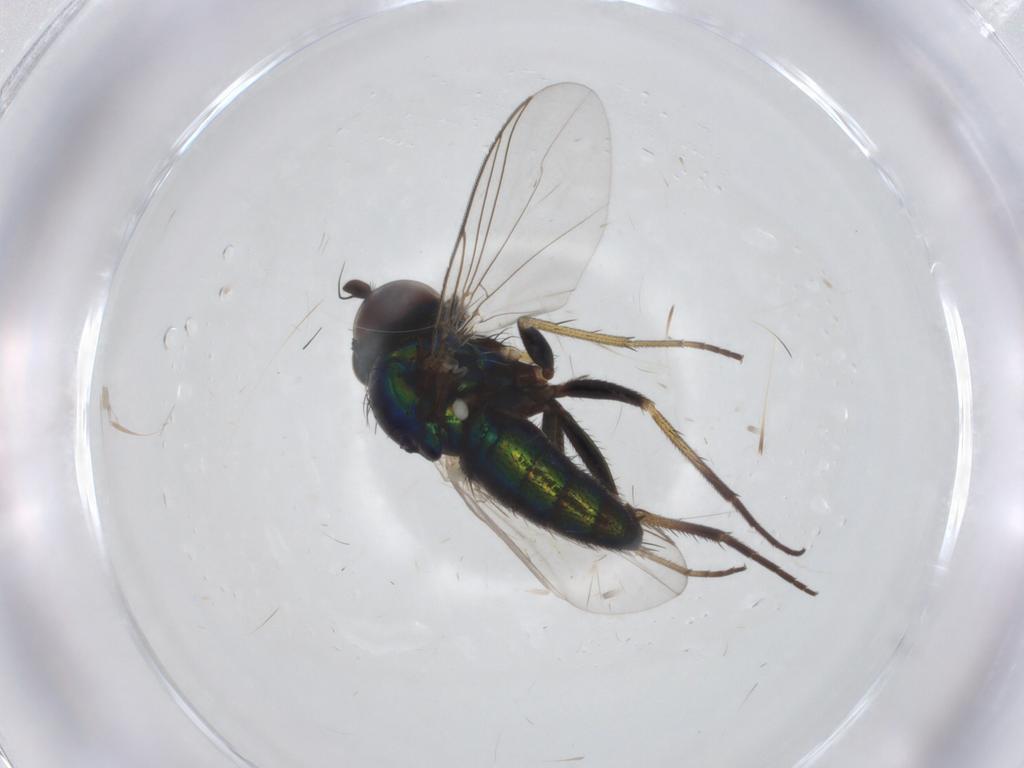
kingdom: Animalia
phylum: Arthropoda
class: Insecta
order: Diptera
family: Dolichopodidae
